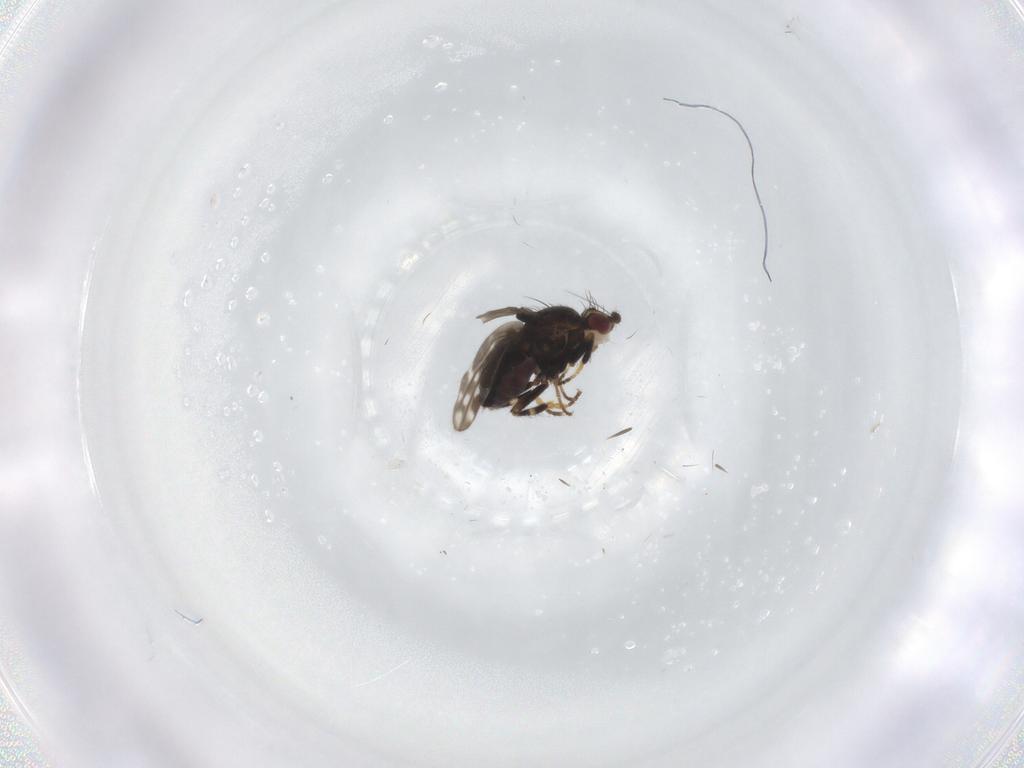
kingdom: Animalia
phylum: Arthropoda
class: Insecta
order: Diptera
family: Sphaeroceridae
